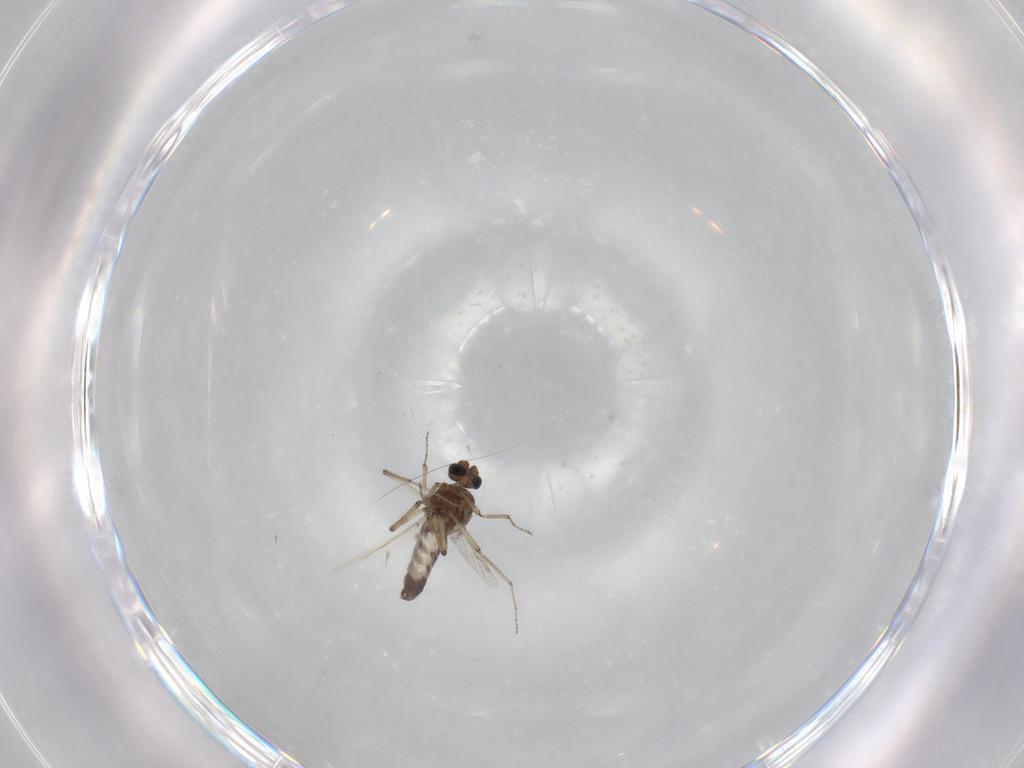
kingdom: Animalia
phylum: Arthropoda
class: Insecta
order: Diptera
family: Ceratopogonidae
